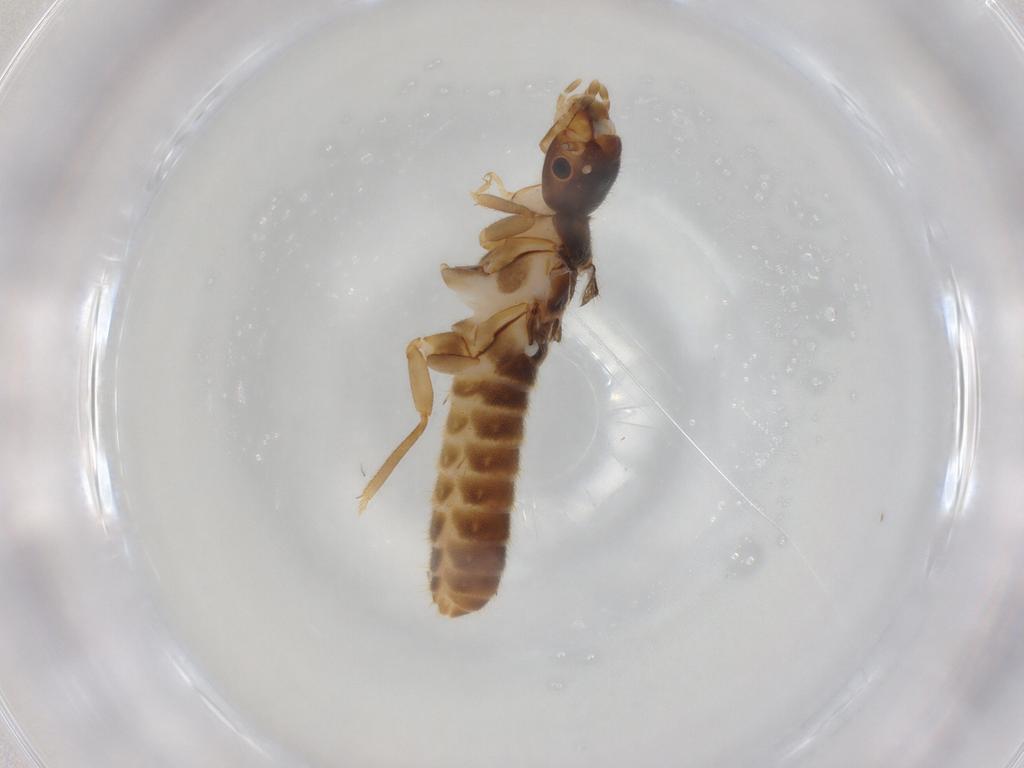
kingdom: Animalia
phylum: Arthropoda
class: Insecta
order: Blattodea
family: Termitidae
